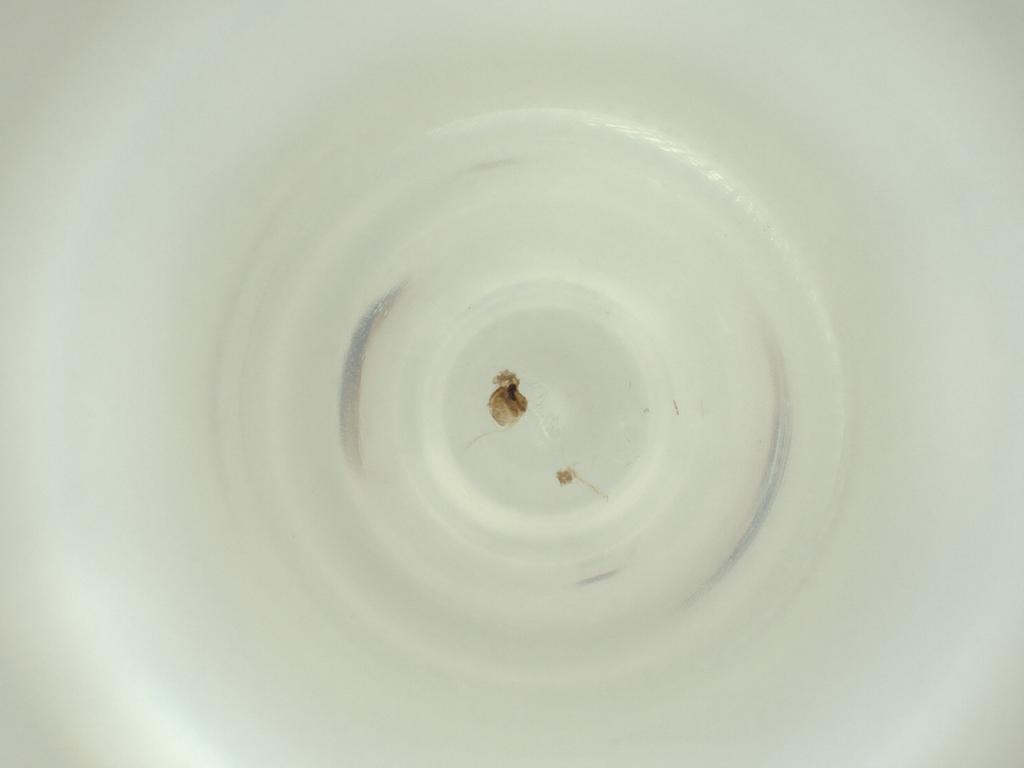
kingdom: Animalia
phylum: Arthropoda
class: Insecta
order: Diptera
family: Cecidomyiidae
